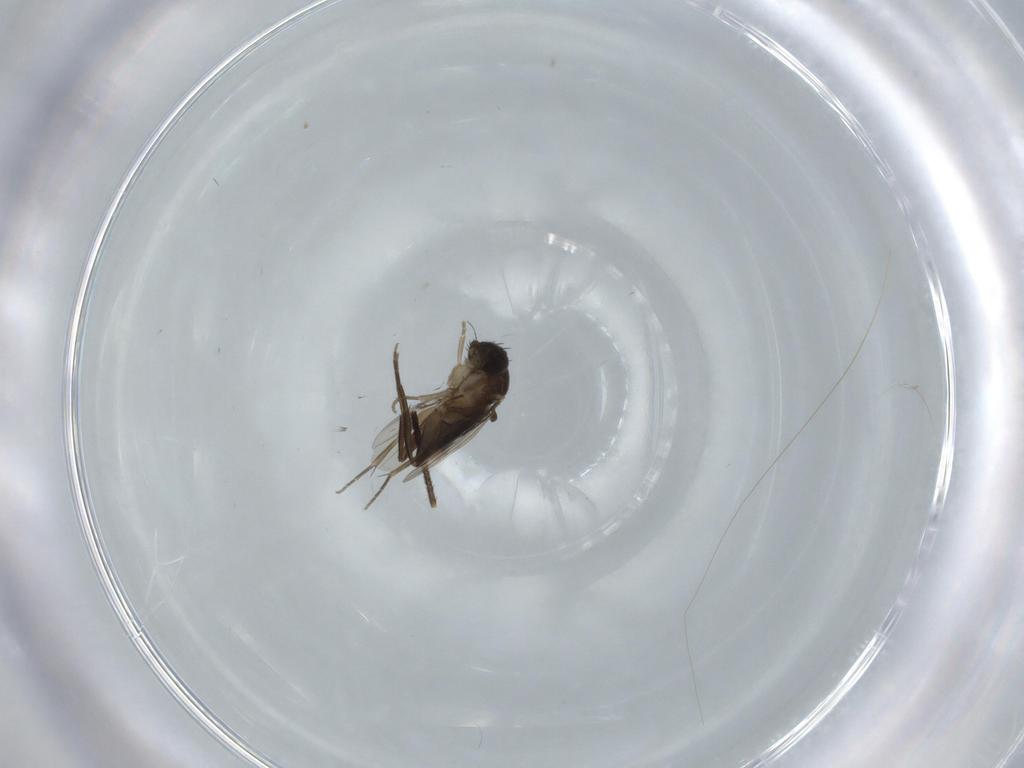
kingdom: Animalia
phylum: Arthropoda
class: Insecta
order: Diptera
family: Phoridae
